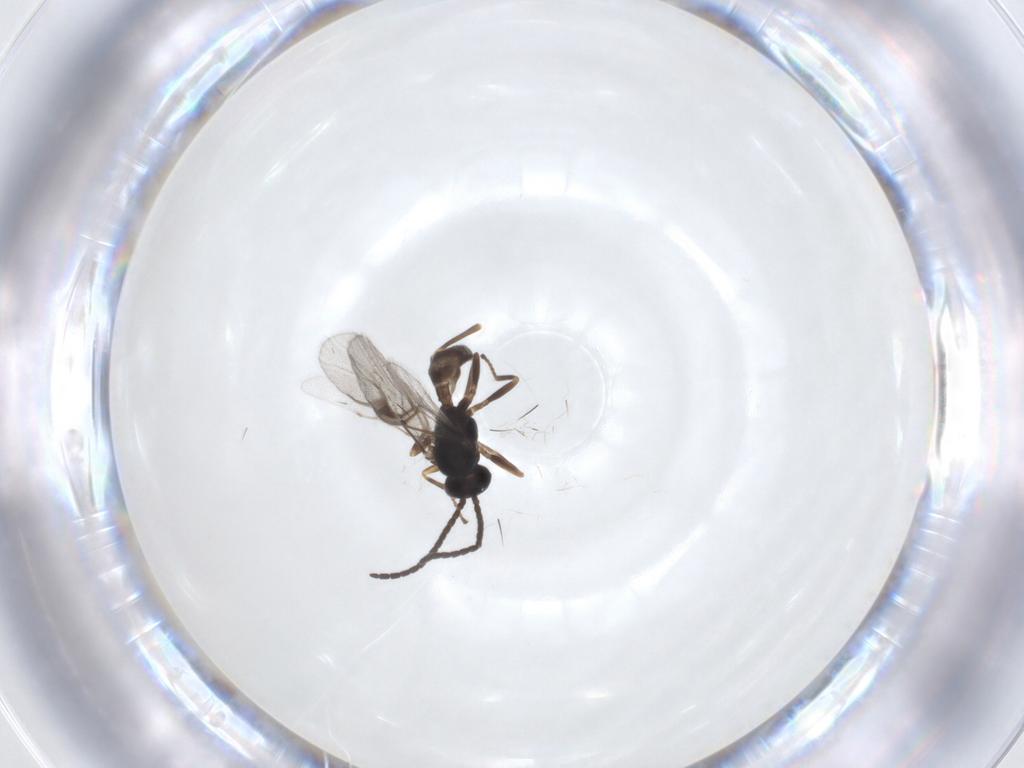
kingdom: Animalia
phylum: Arthropoda
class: Insecta
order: Hymenoptera
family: Braconidae
